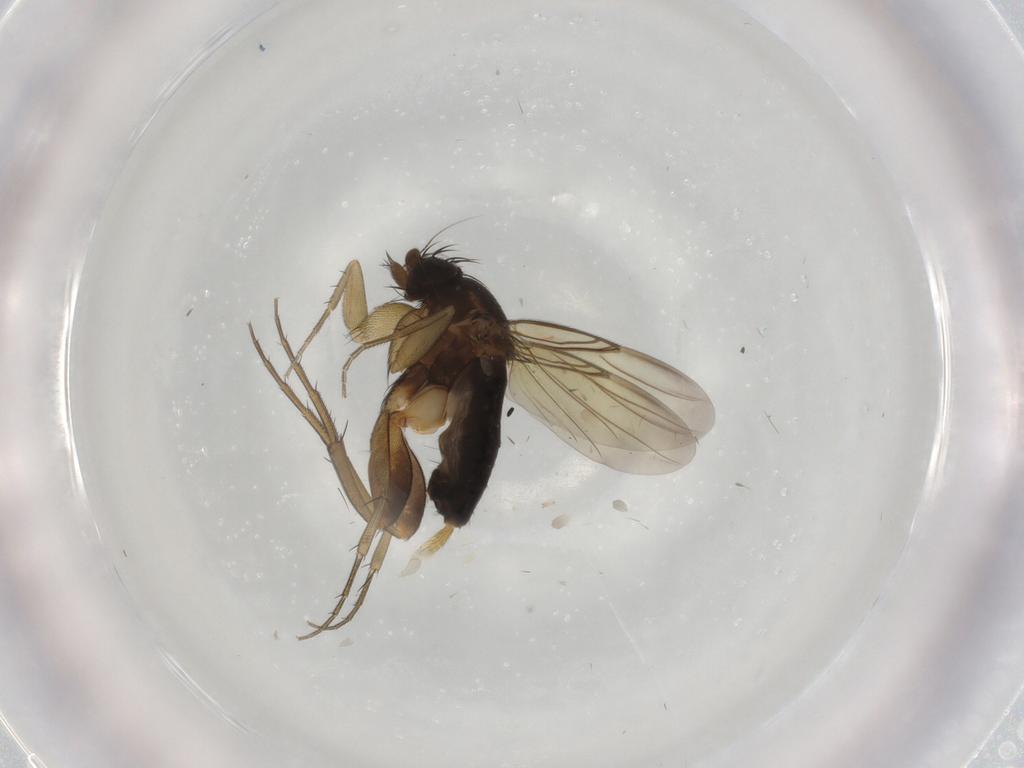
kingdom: Animalia
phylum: Arthropoda
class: Insecta
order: Diptera
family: Phoridae
